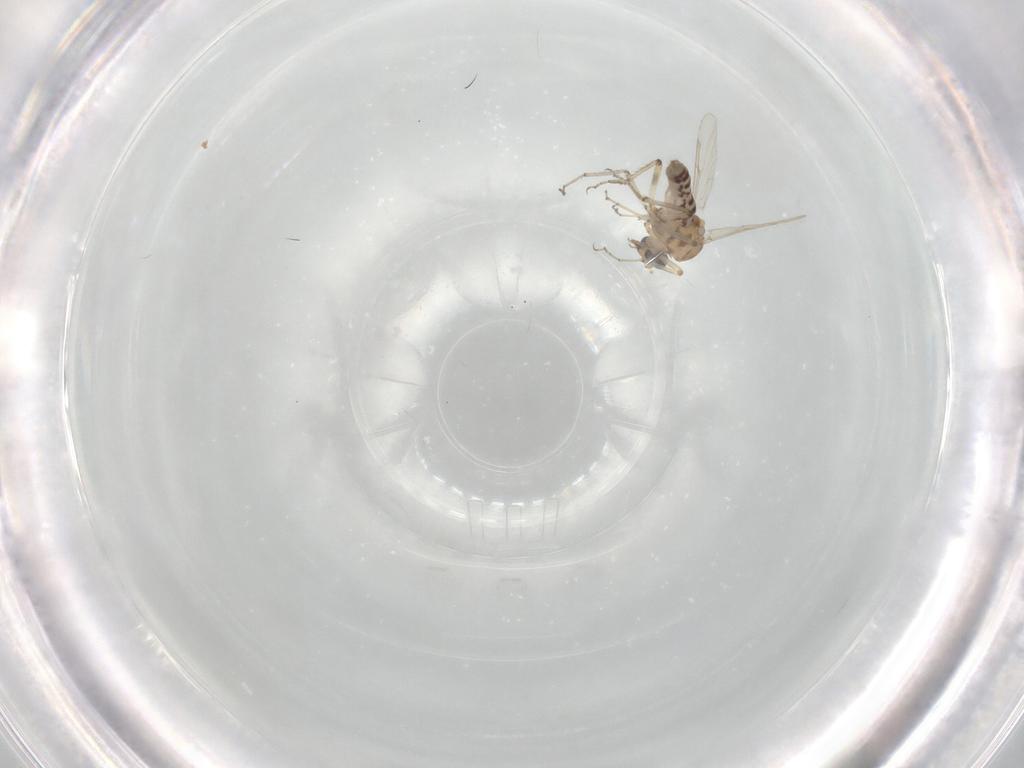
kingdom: Animalia
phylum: Arthropoda
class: Insecta
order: Diptera
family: Ceratopogonidae
